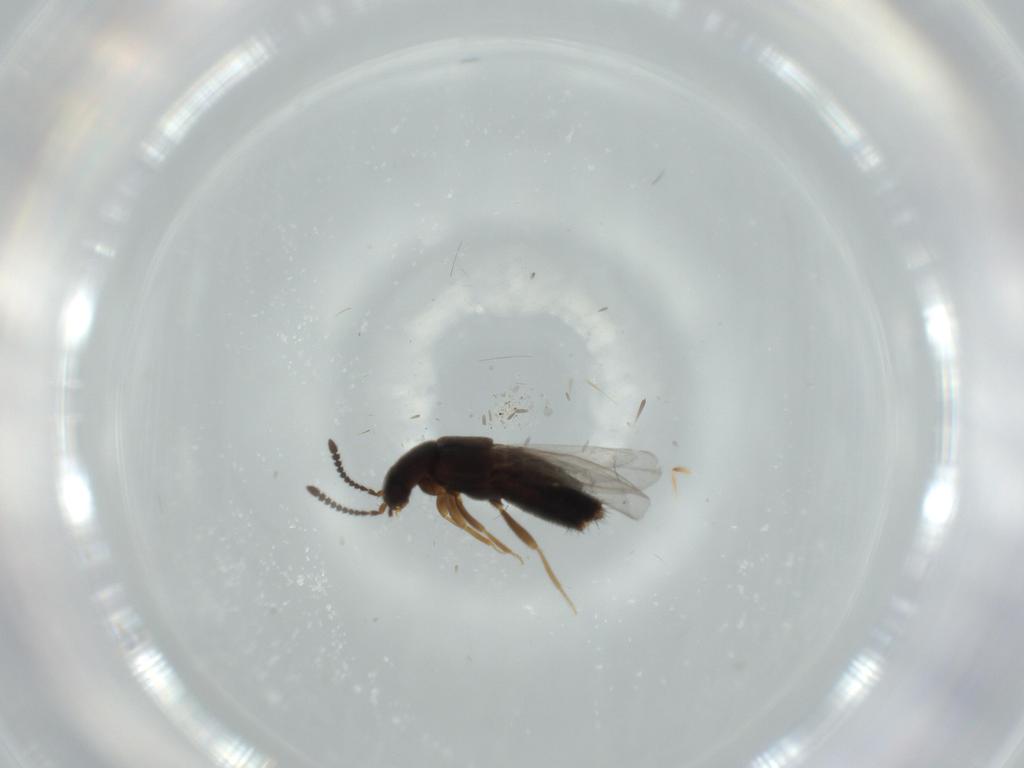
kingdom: Animalia
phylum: Arthropoda
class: Insecta
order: Coleoptera
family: Staphylinidae
